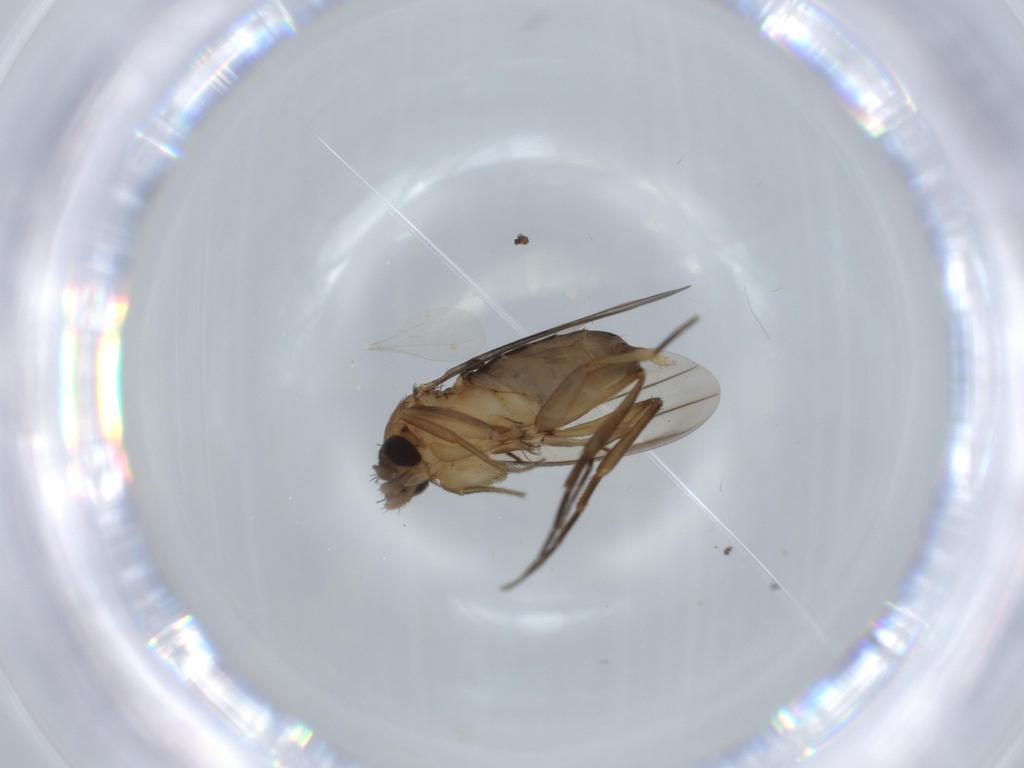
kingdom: Animalia
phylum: Arthropoda
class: Insecta
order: Diptera
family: Phoridae
